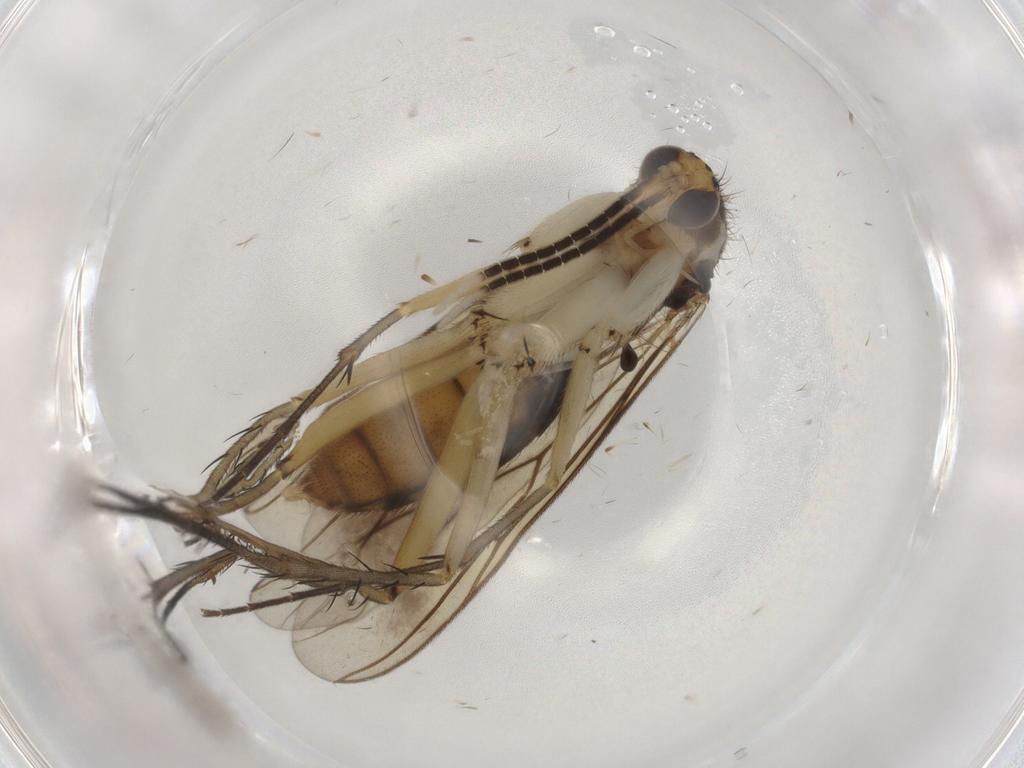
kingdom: Animalia
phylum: Arthropoda
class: Insecta
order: Diptera
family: Mycetophilidae
